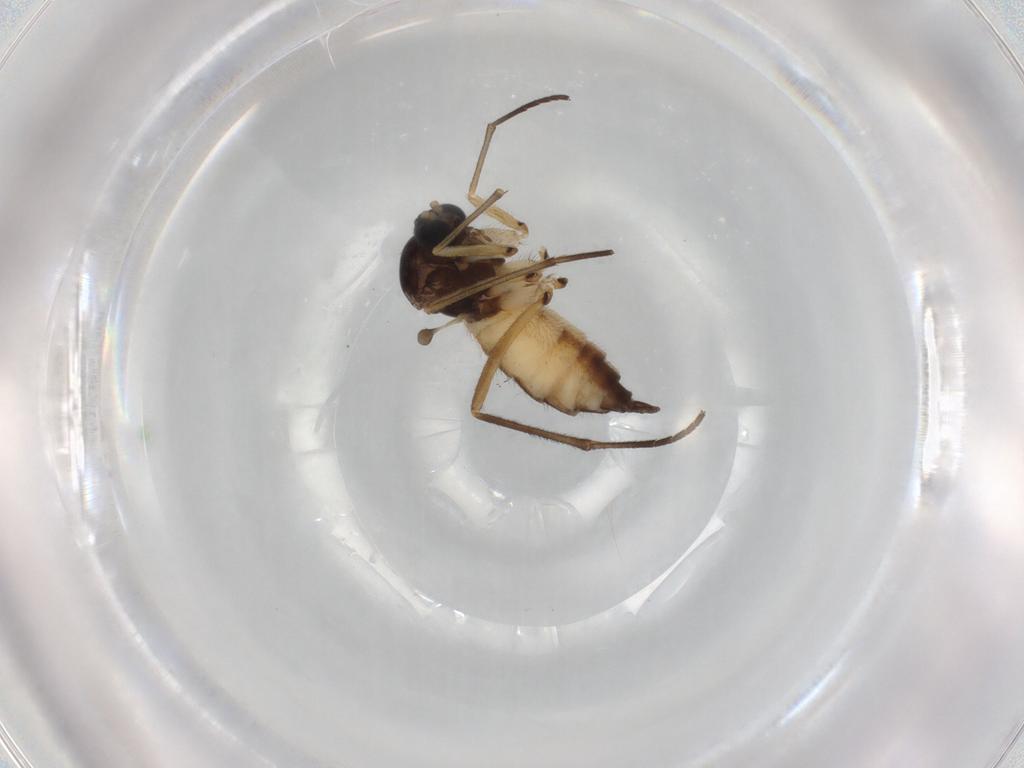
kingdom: Animalia
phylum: Arthropoda
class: Insecta
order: Diptera
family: Sciaridae
